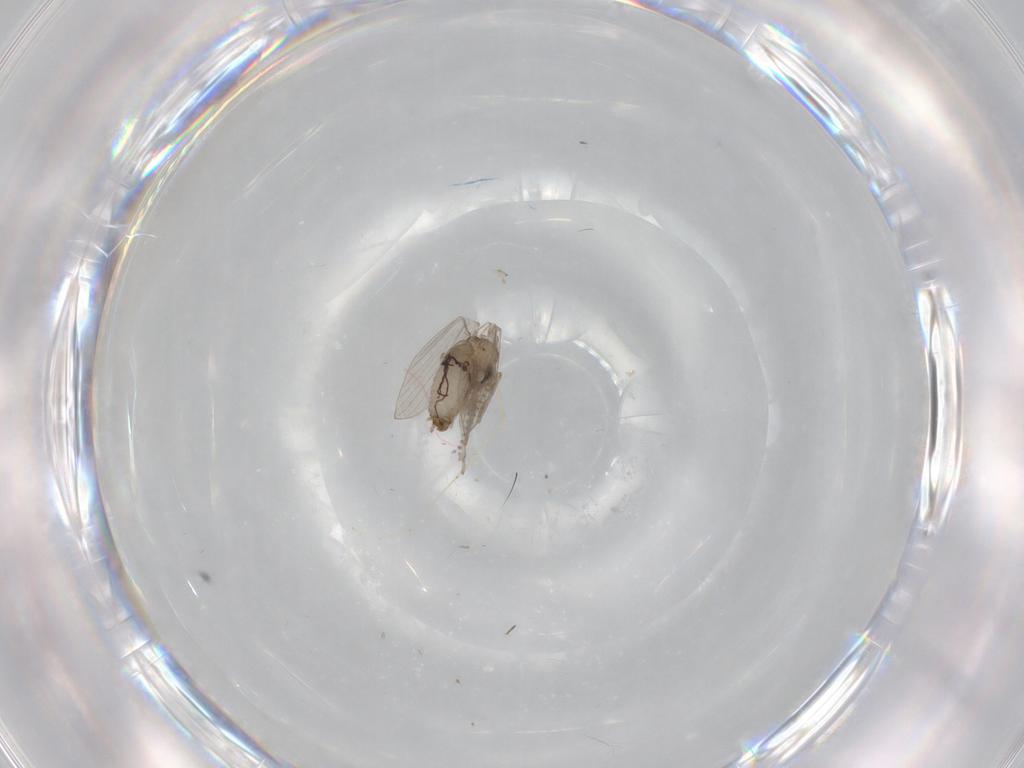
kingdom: Animalia
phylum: Arthropoda
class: Insecta
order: Diptera
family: Psychodidae
